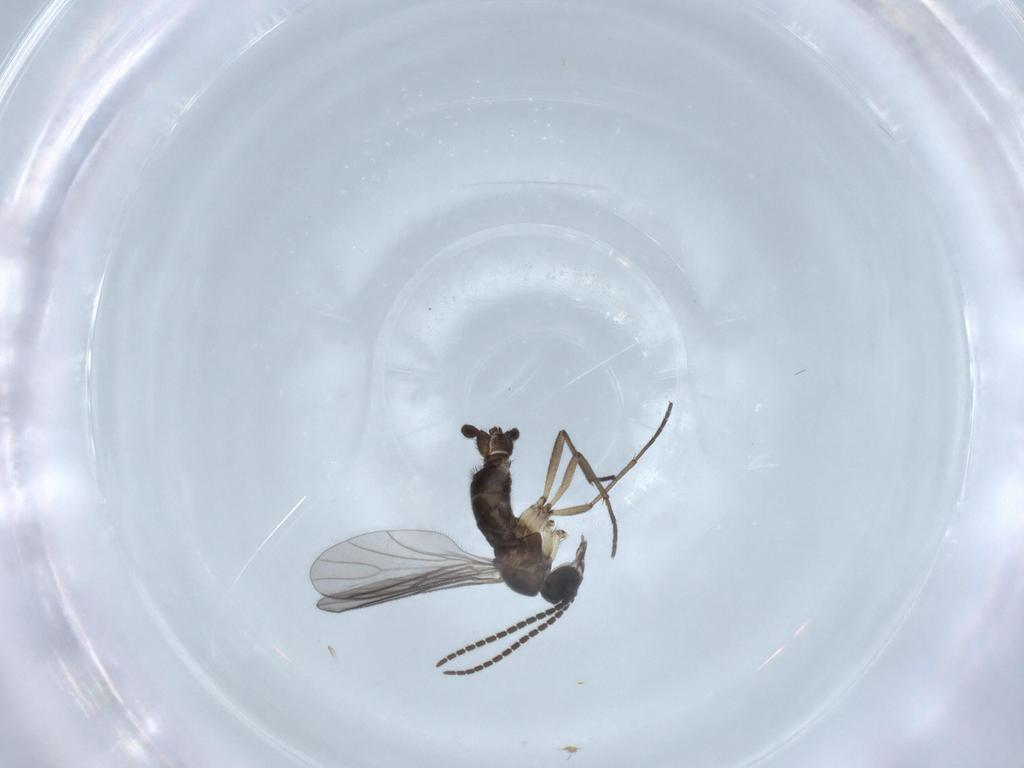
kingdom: Animalia
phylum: Arthropoda
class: Insecta
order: Diptera
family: Sciaridae
